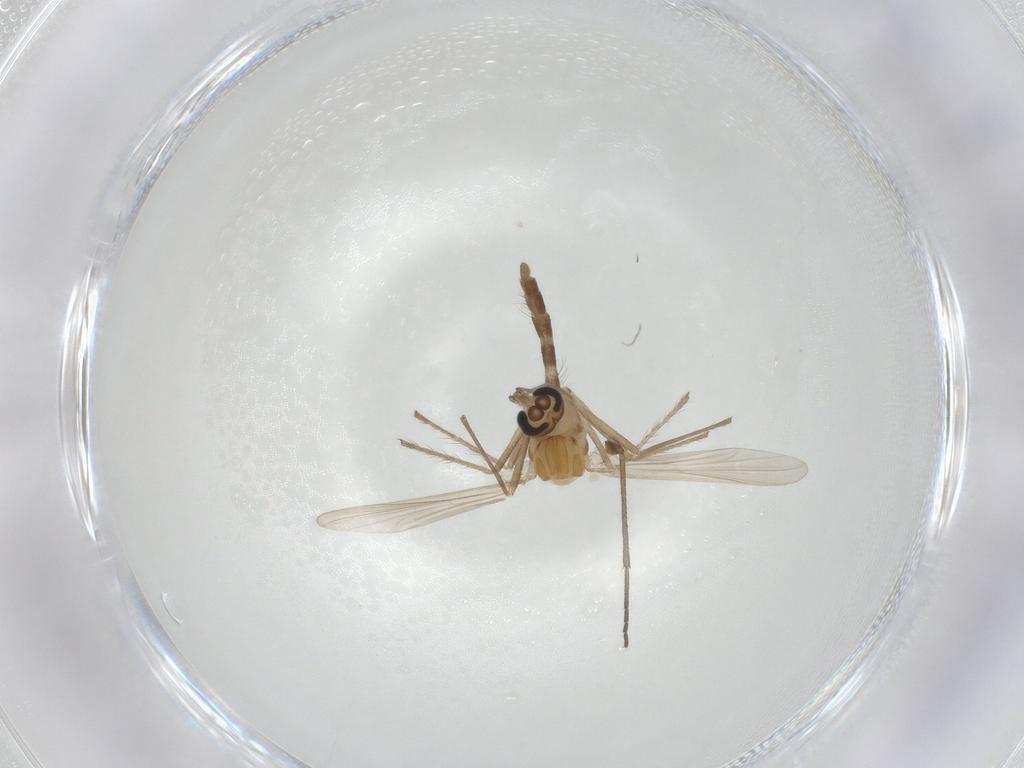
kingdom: Animalia
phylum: Arthropoda
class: Insecta
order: Diptera
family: Chironomidae
